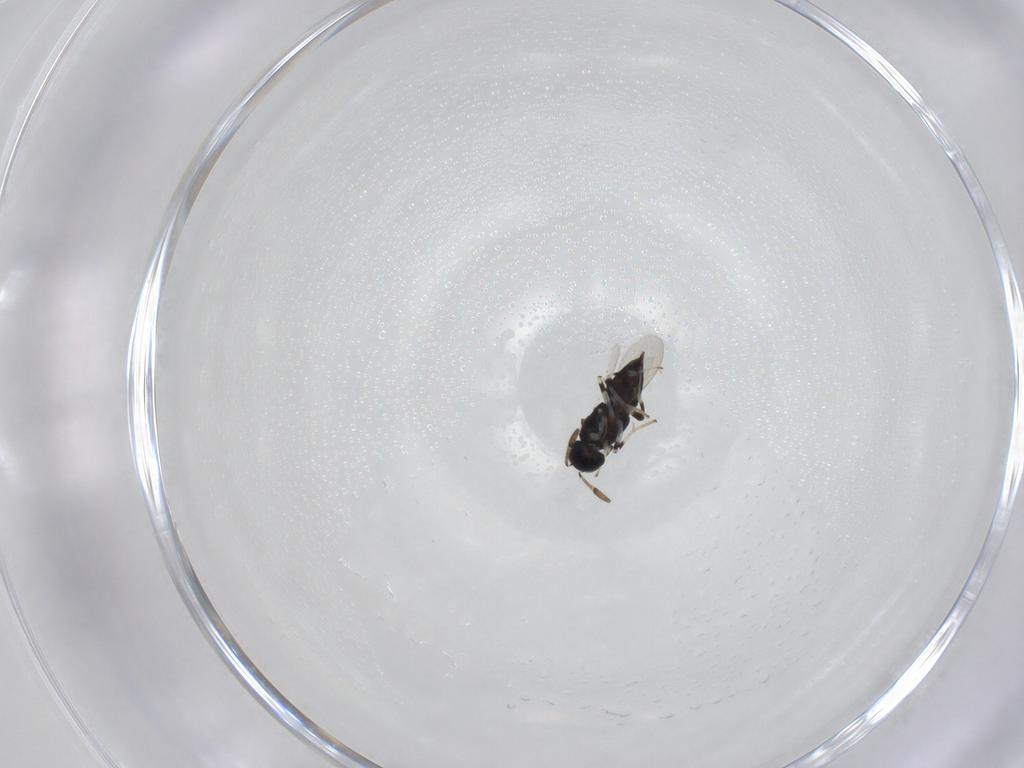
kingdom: Animalia
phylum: Arthropoda
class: Insecta
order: Hymenoptera
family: Encyrtidae
